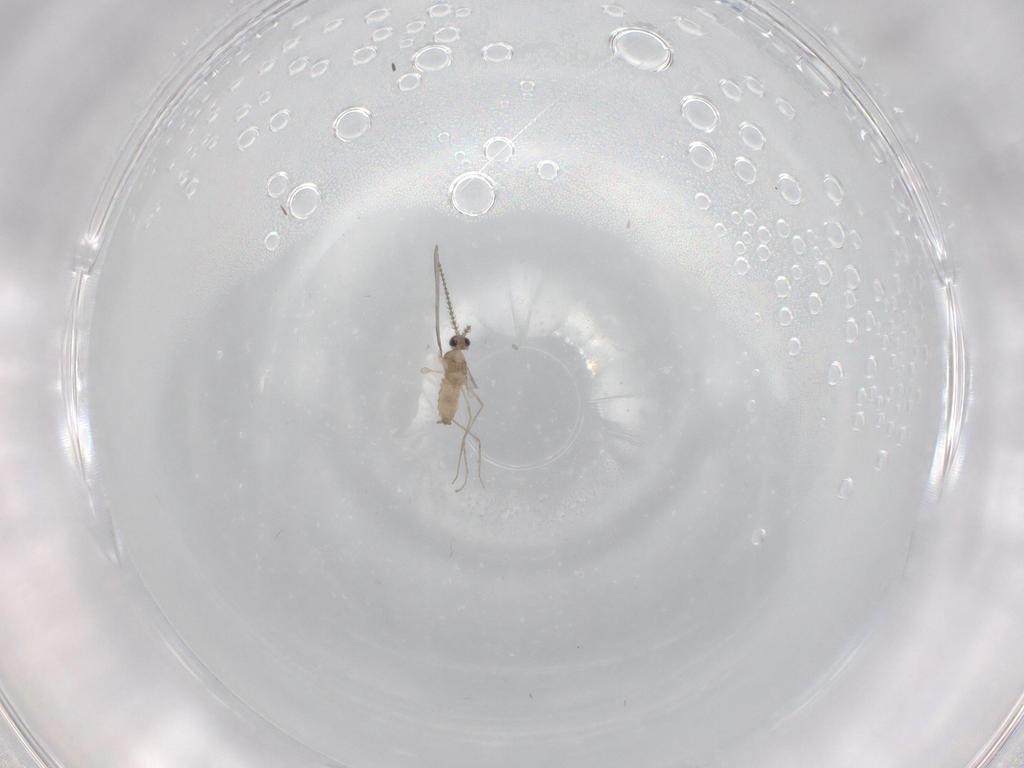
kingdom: Animalia
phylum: Arthropoda
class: Insecta
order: Diptera
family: Cecidomyiidae
